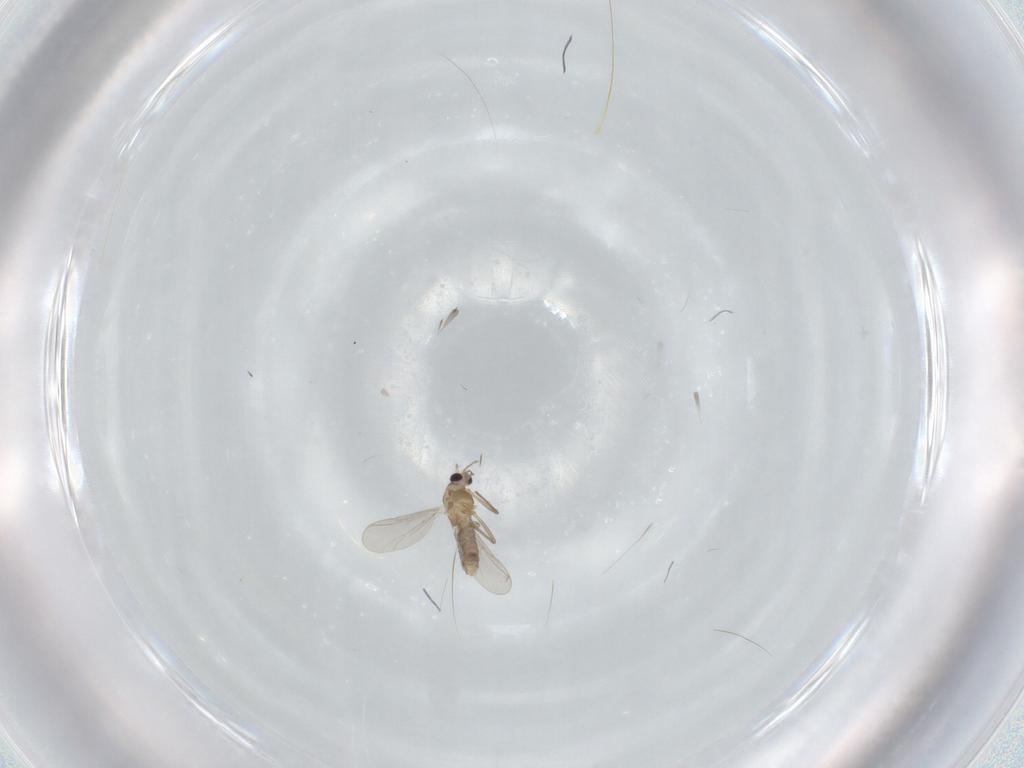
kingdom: Animalia
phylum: Arthropoda
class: Insecta
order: Diptera
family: Chironomidae
